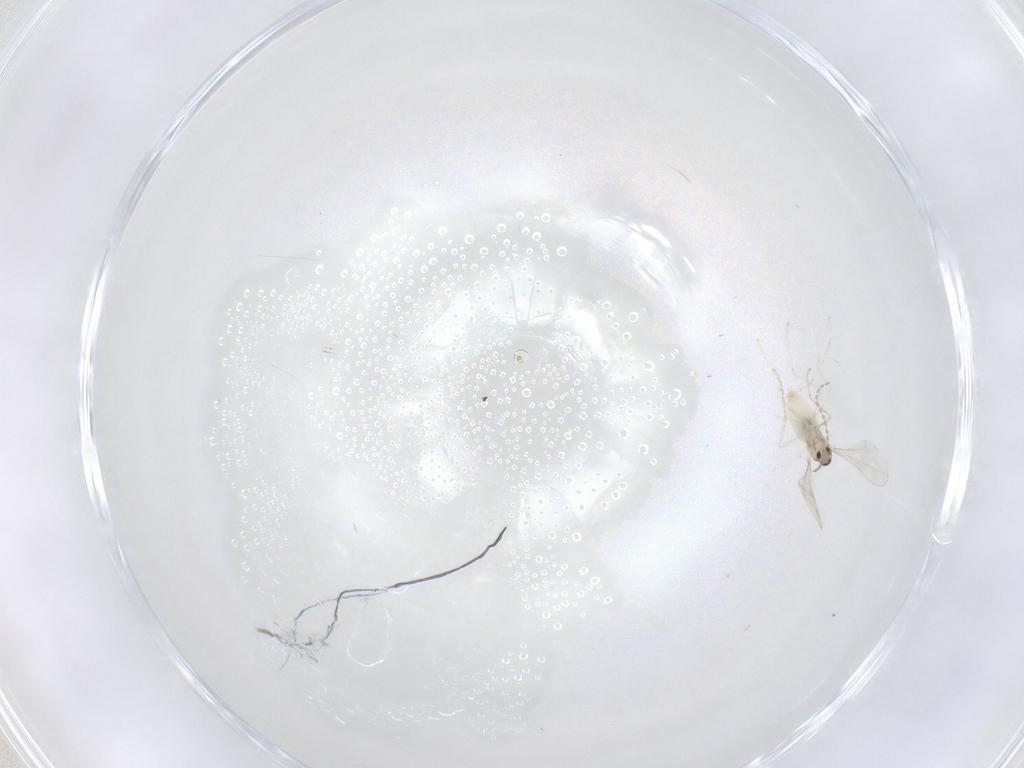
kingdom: Animalia
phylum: Arthropoda
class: Insecta
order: Diptera
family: Cecidomyiidae
